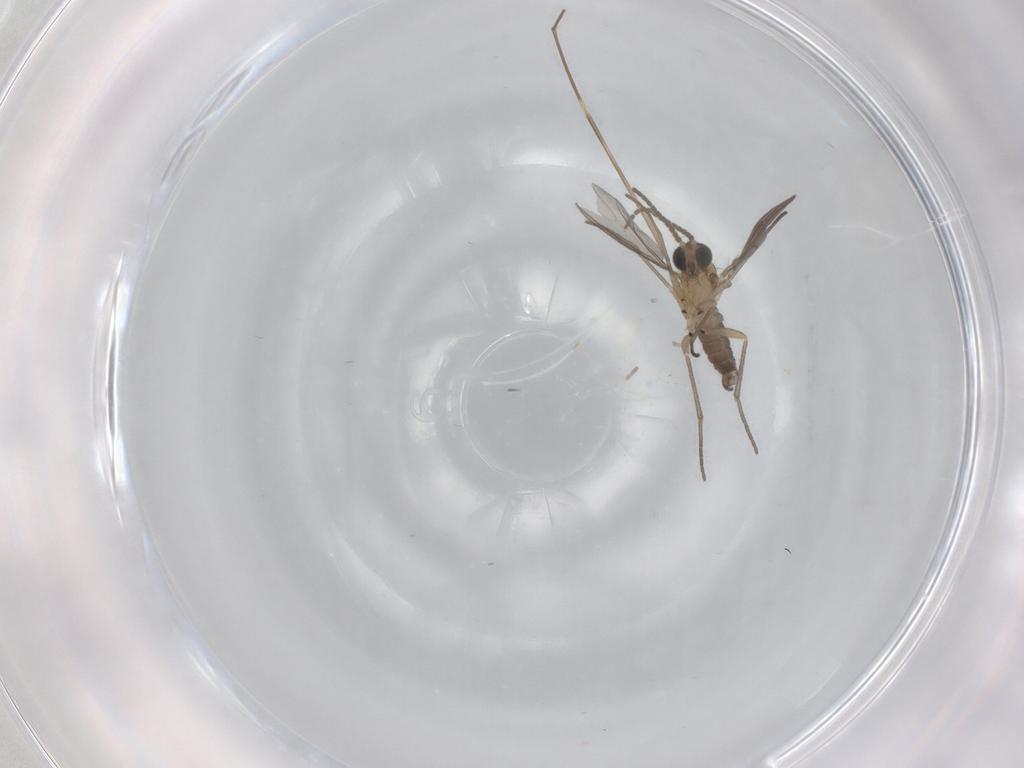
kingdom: Animalia
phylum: Arthropoda
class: Insecta
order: Diptera
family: Sciaridae
